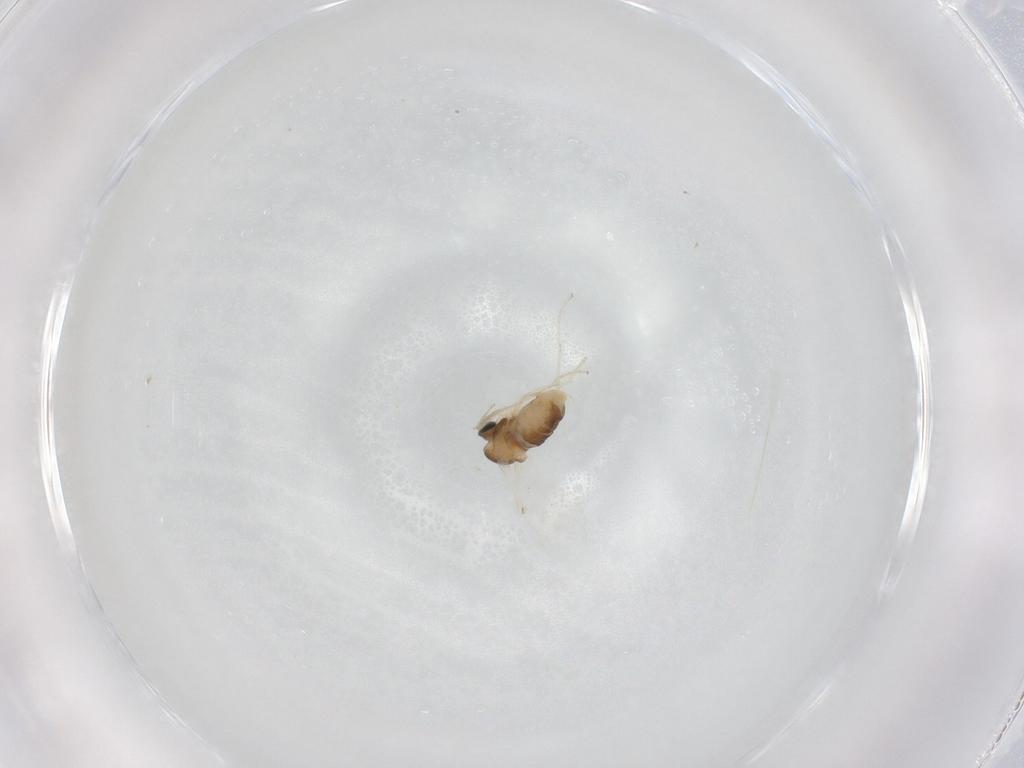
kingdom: Animalia
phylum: Arthropoda
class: Insecta
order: Diptera
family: Cecidomyiidae
